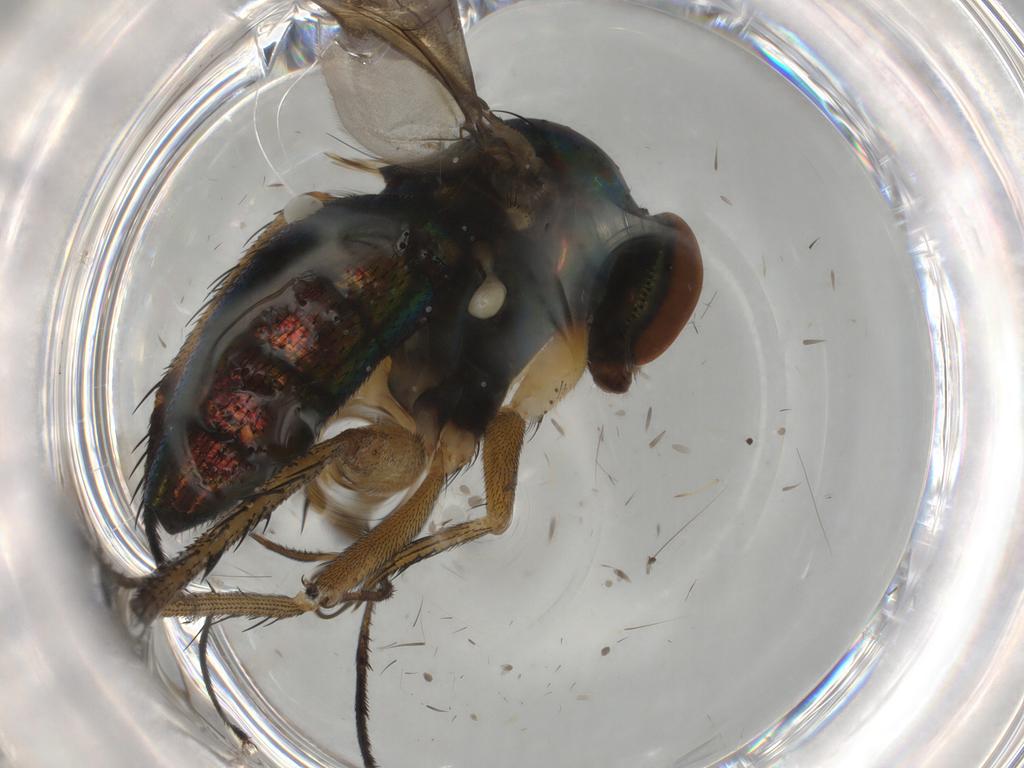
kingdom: Animalia
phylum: Arthropoda
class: Insecta
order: Diptera
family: Dolichopodidae
